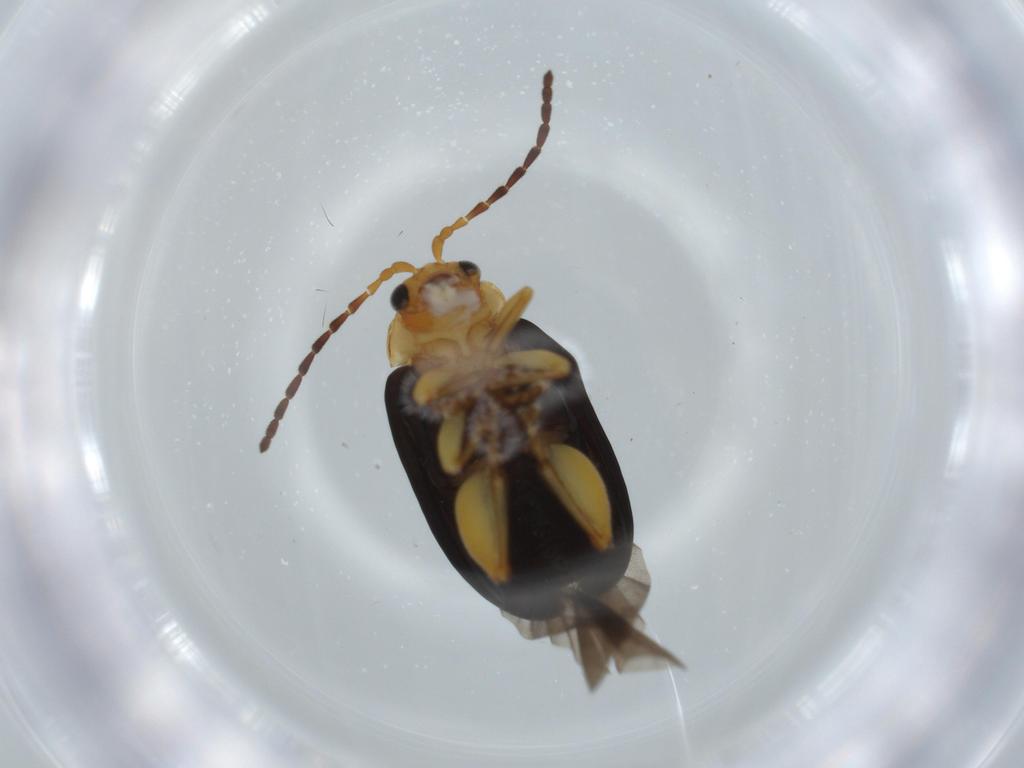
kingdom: Animalia
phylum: Arthropoda
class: Insecta
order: Coleoptera
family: Chrysomelidae
